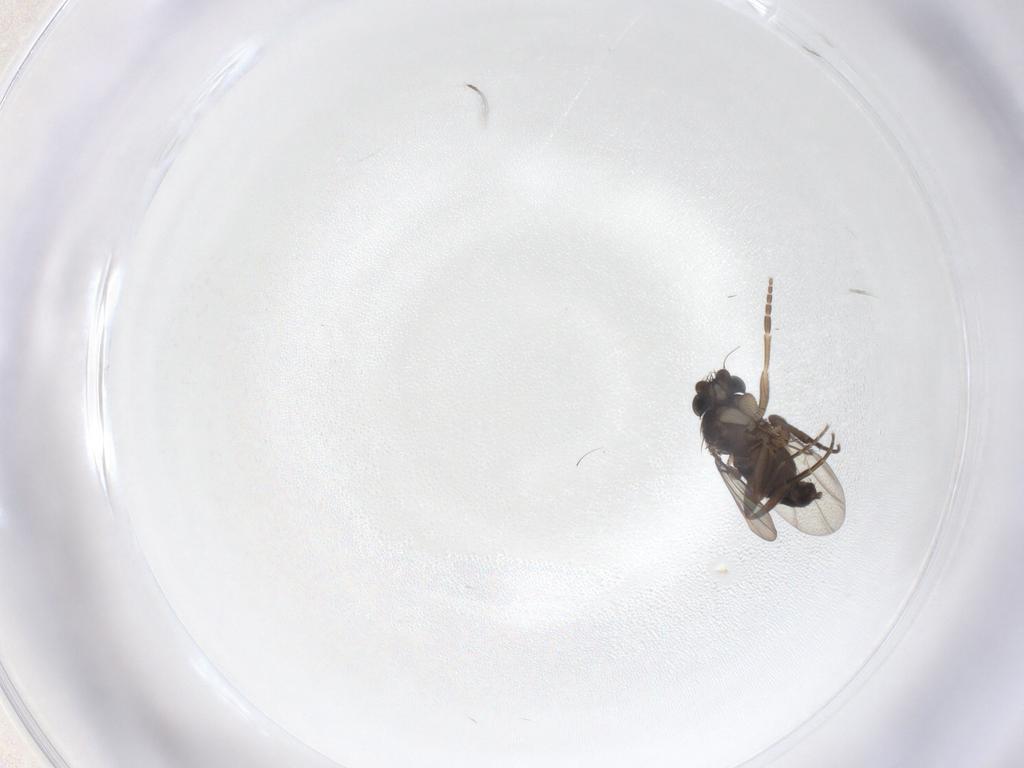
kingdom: Animalia
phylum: Arthropoda
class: Insecta
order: Diptera
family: Phoridae
